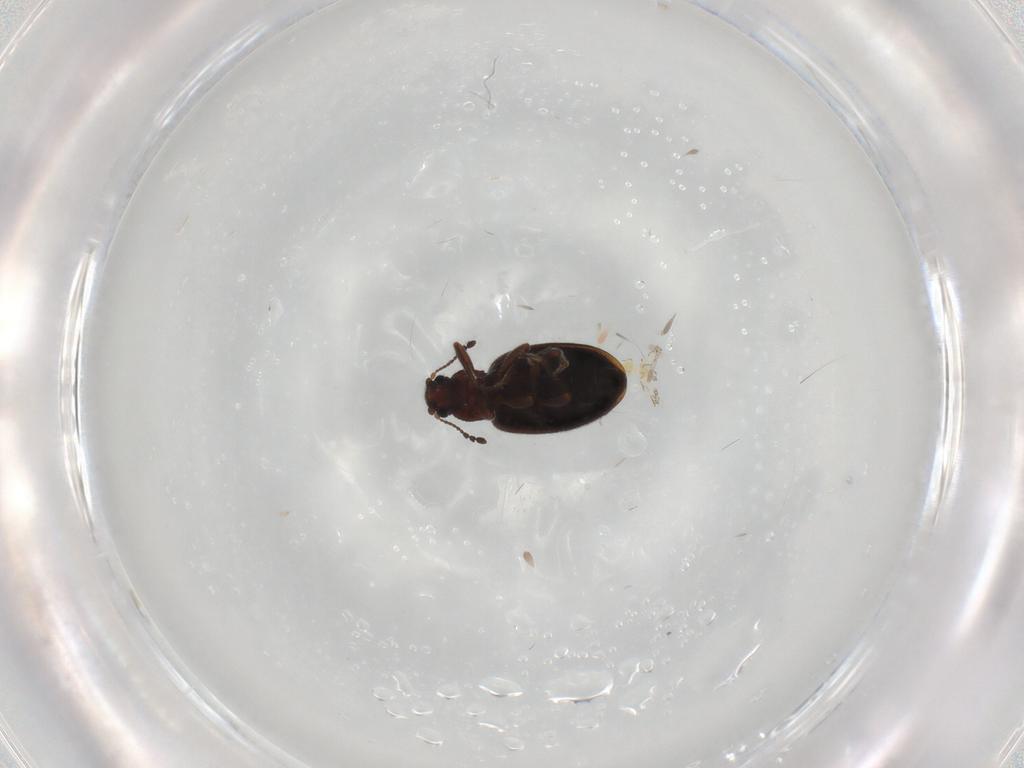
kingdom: Animalia
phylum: Arthropoda
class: Insecta
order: Coleoptera
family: Latridiidae
